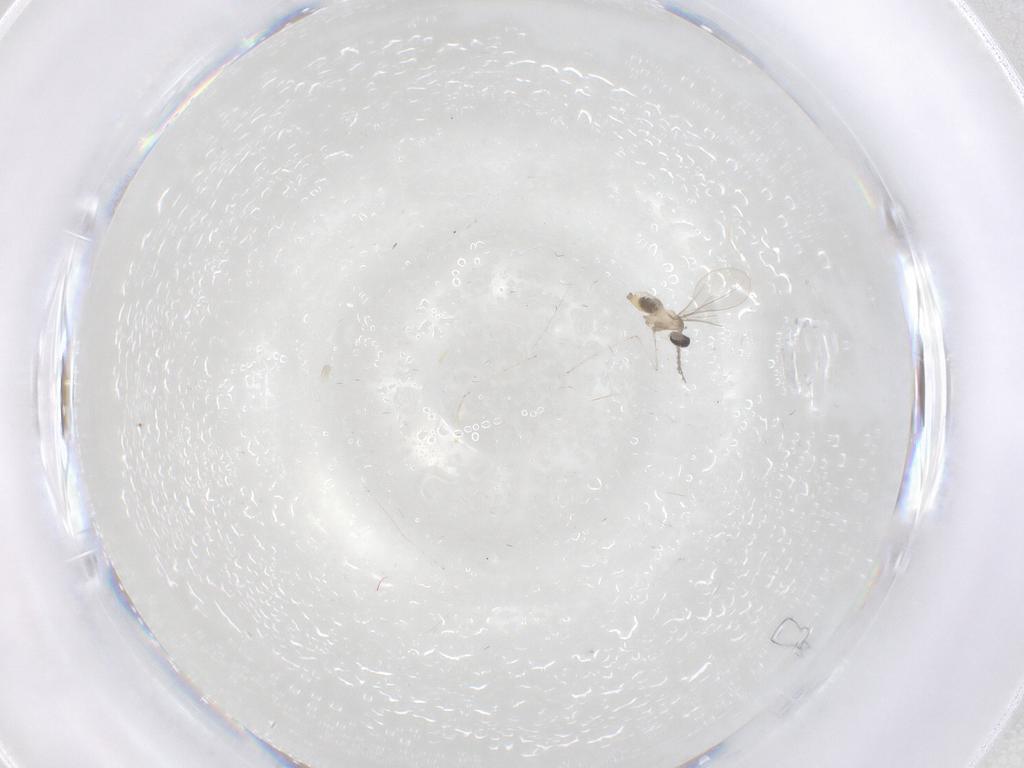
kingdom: Animalia
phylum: Arthropoda
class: Insecta
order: Diptera
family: Cecidomyiidae
